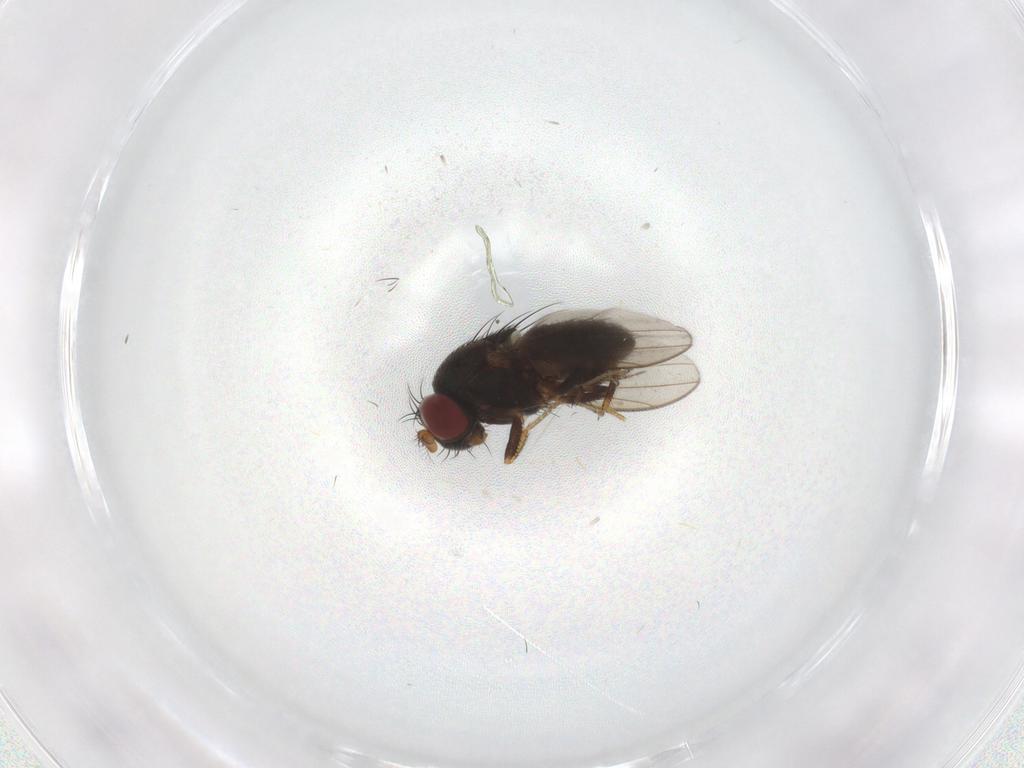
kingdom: Animalia
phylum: Arthropoda
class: Insecta
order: Diptera
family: Ephydridae
